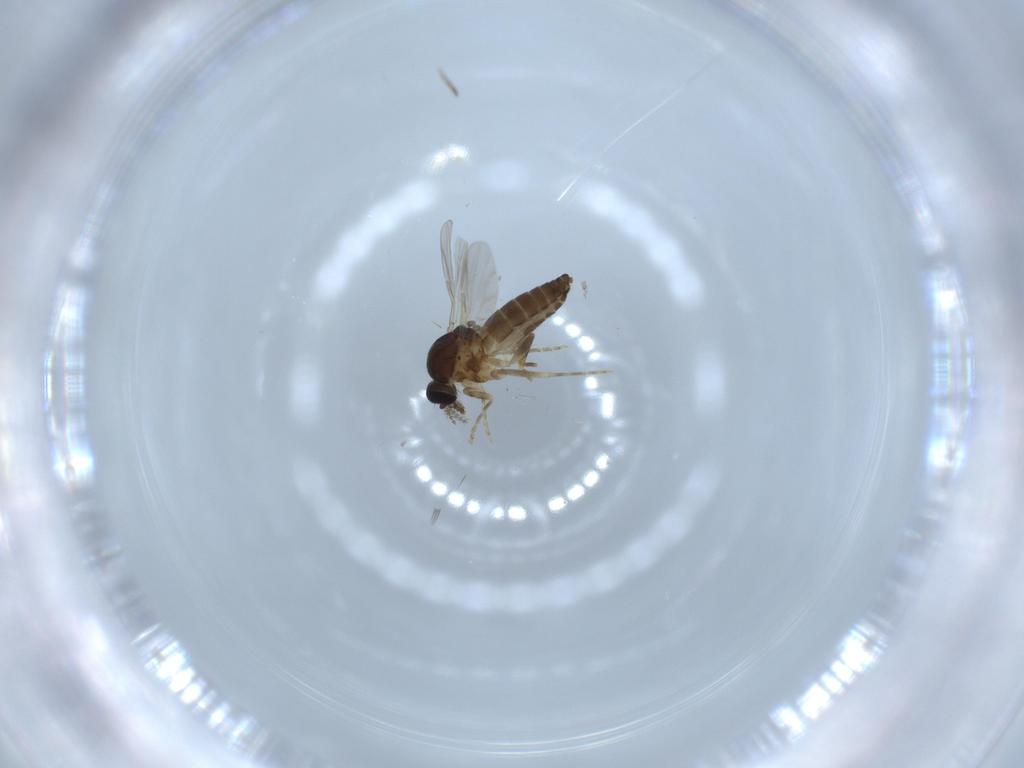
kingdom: Animalia
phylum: Arthropoda
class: Insecta
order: Diptera
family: Ceratopogonidae
